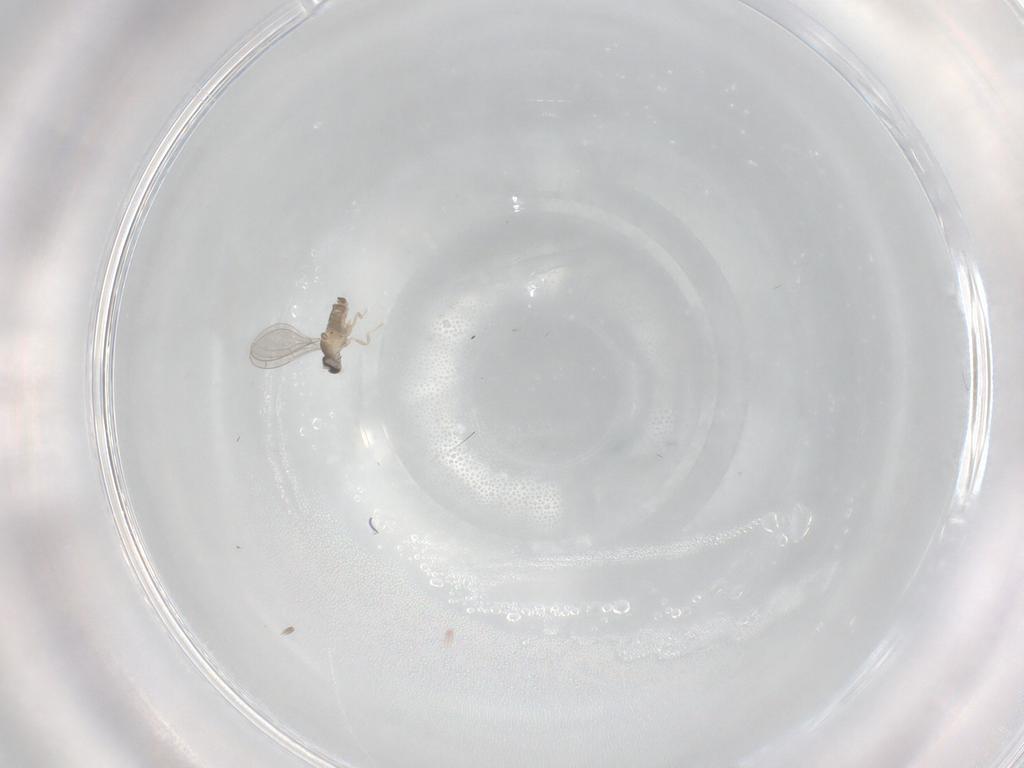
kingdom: Animalia
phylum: Arthropoda
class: Insecta
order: Diptera
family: Cecidomyiidae
